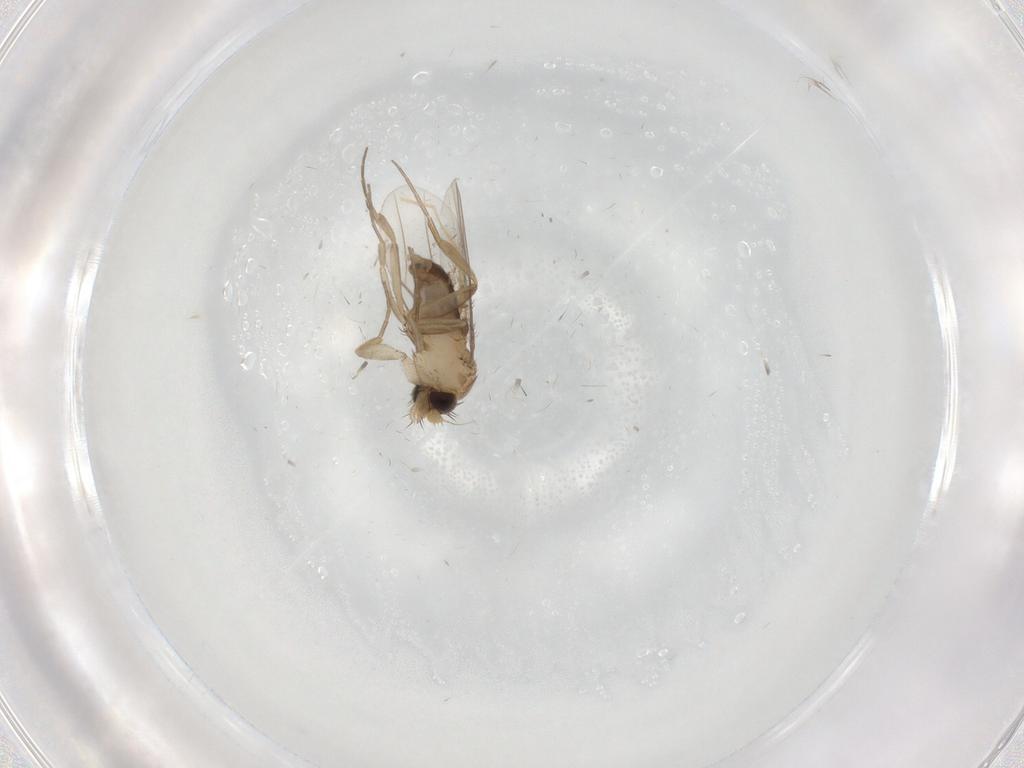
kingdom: Animalia
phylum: Arthropoda
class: Insecta
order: Diptera
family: Phoridae
